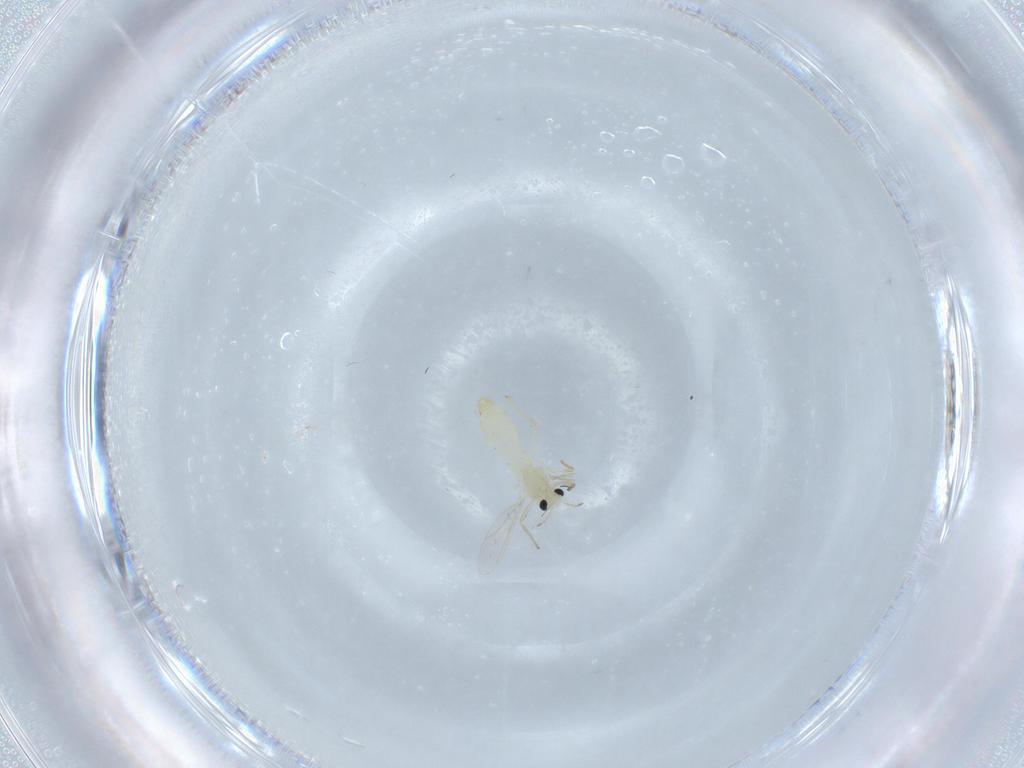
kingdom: Animalia
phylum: Arthropoda
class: Insecta
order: Diptera
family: Chironomidae
